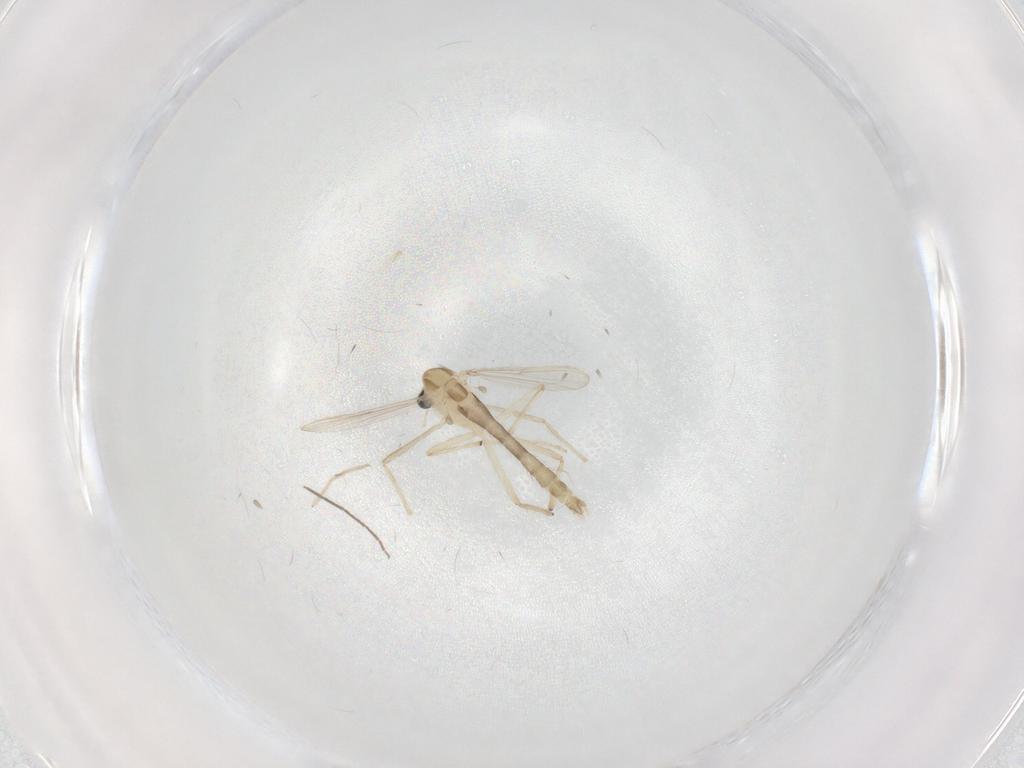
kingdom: Animalia
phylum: Arthropoda
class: Insecta
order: Diptera
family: Chironomidae
